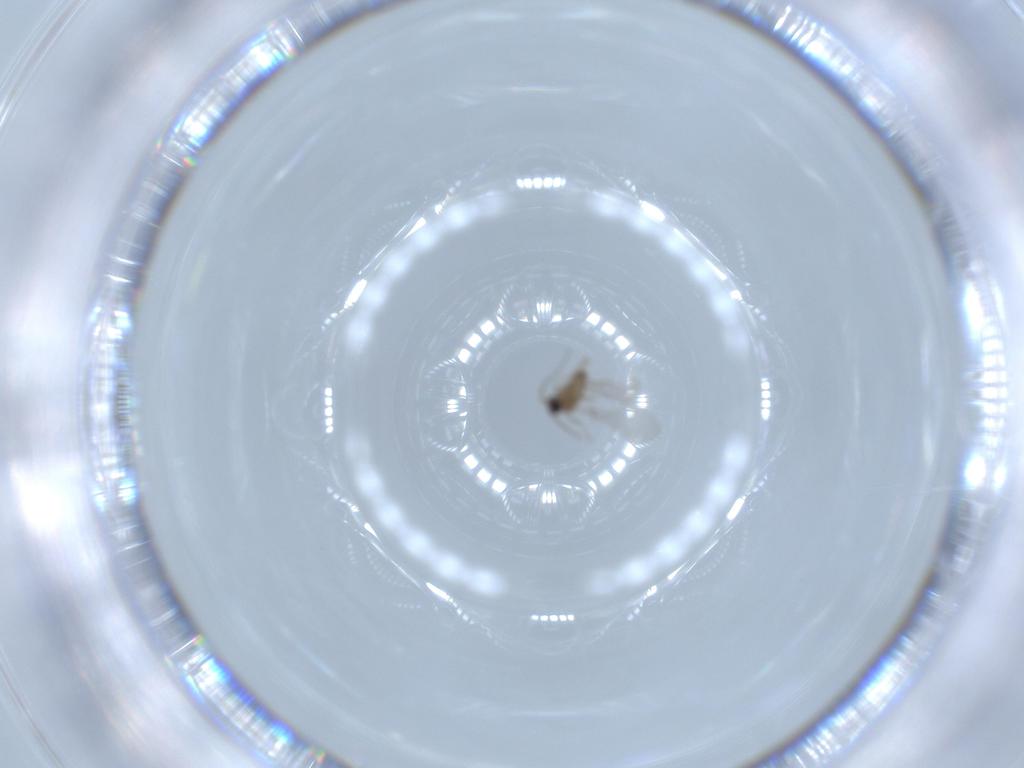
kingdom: Animalia
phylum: Arthropoda
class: Insecta
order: Diptera
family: Cecidomyiidae
